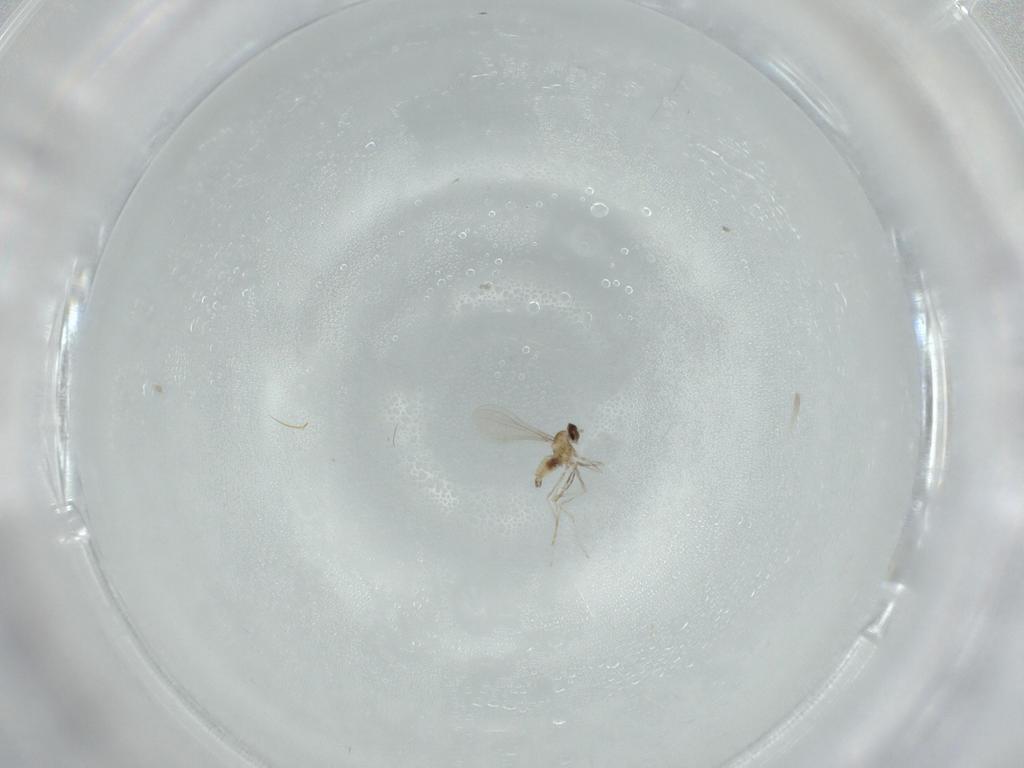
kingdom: Animalia
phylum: Arthropoda
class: Insecta
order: Diptera
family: Cecidomyiidae
